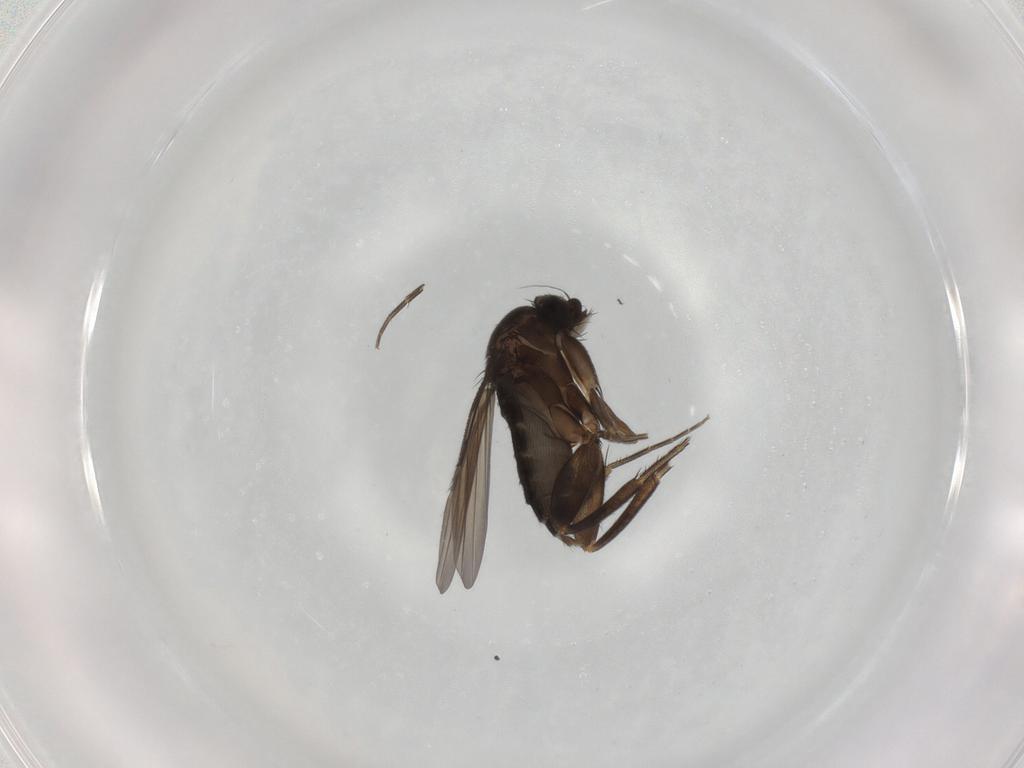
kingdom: Animalia
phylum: Arthropoda
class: Insecta
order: Diptera
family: Phoridae
